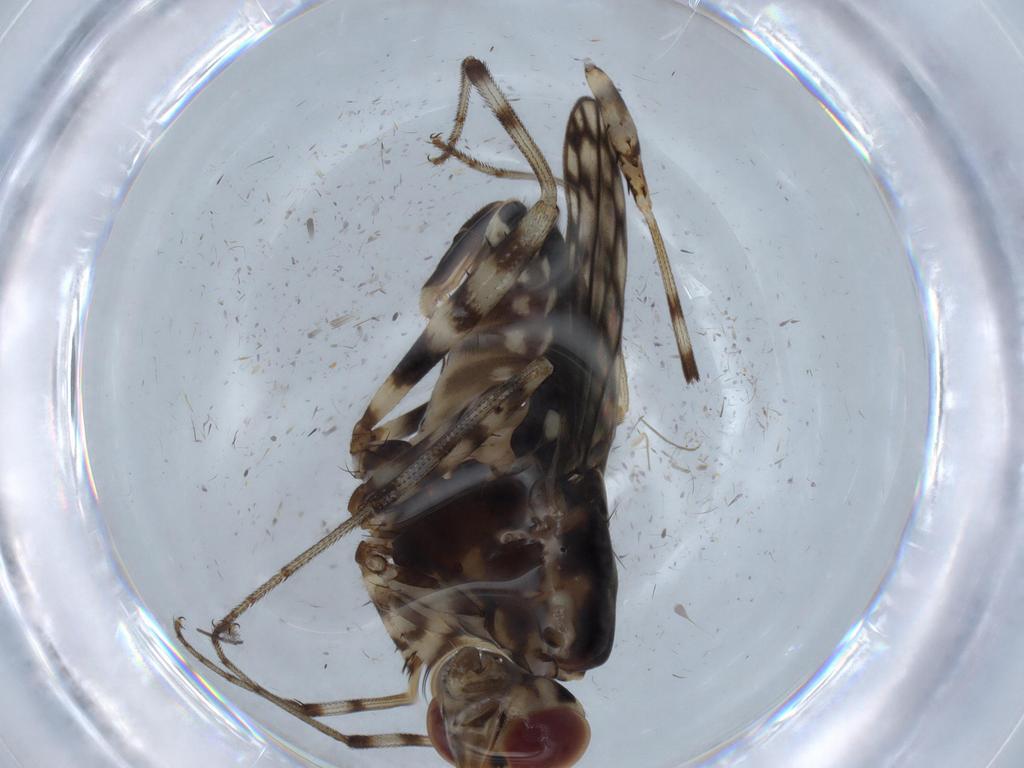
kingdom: Animalia
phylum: Arthropoda
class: Insecta
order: Diptera
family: Neriidae
